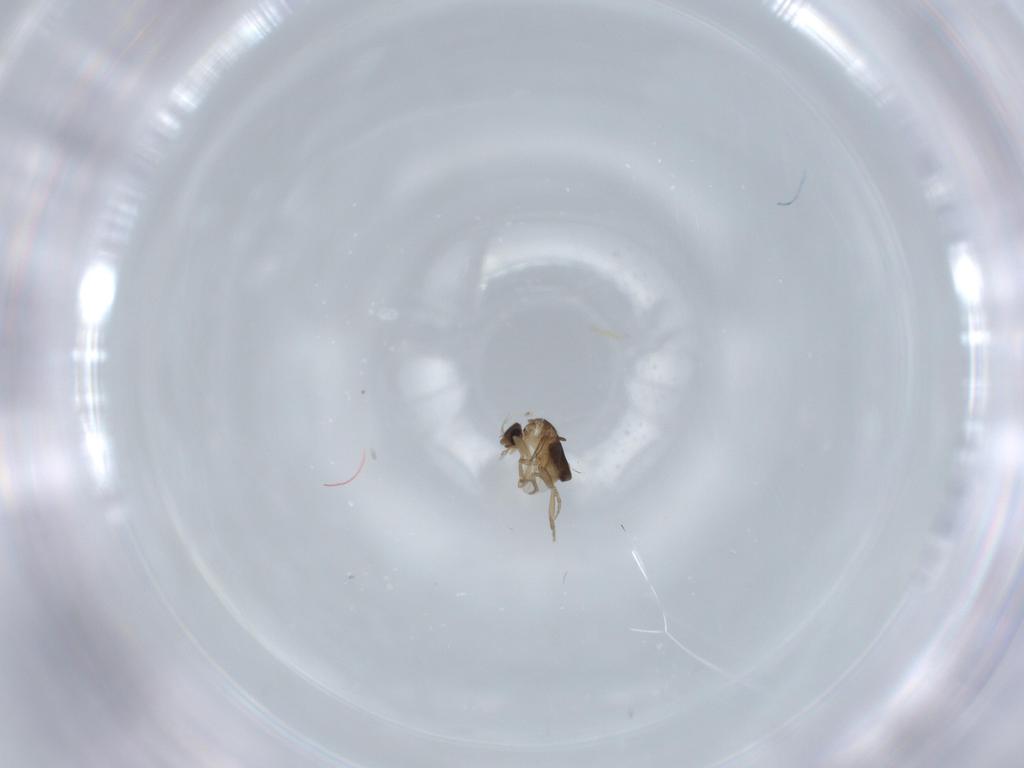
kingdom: Animalia
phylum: Arthropoda
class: Insecta
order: Diptera
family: Phoridae
